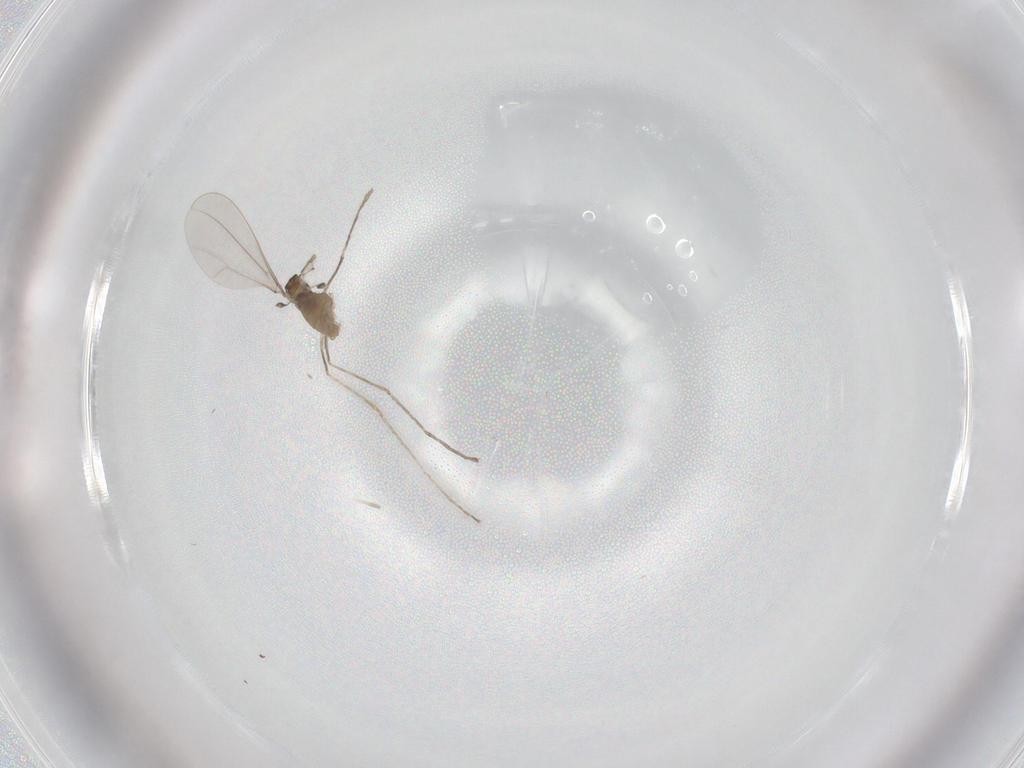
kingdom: Animalia
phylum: Arthropoda
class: Insecta
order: Diptera
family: Cecidomyiidae
